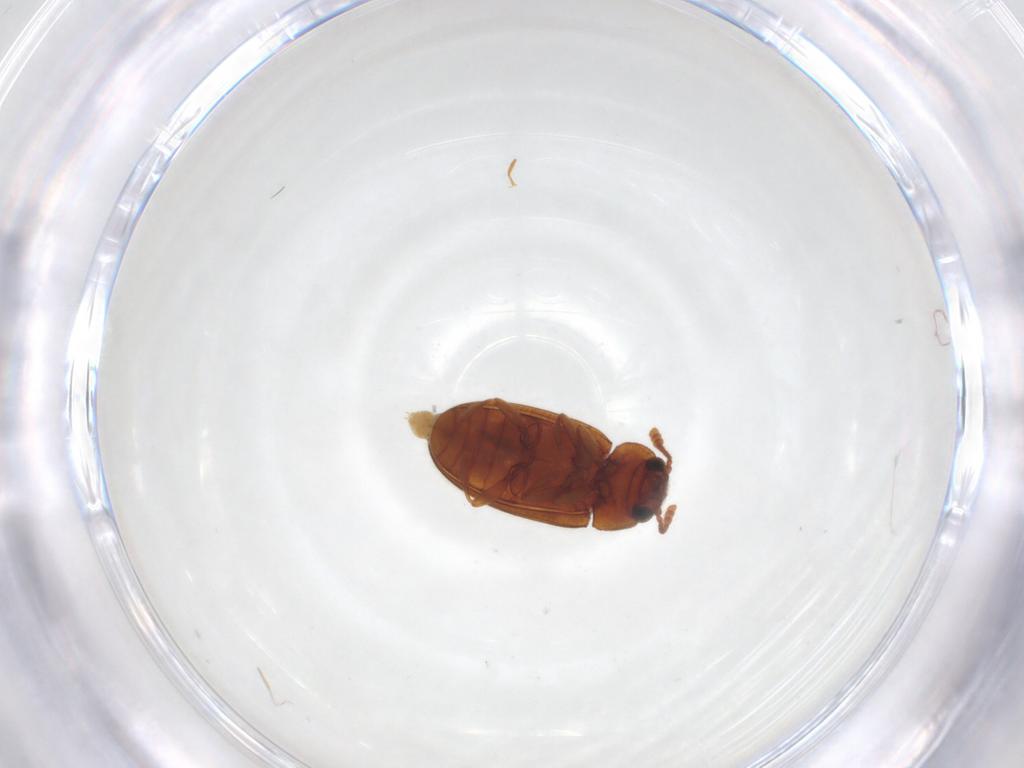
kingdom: Animalia
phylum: Arthropoda
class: Insecta
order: Coleoptera
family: Erotylidae
